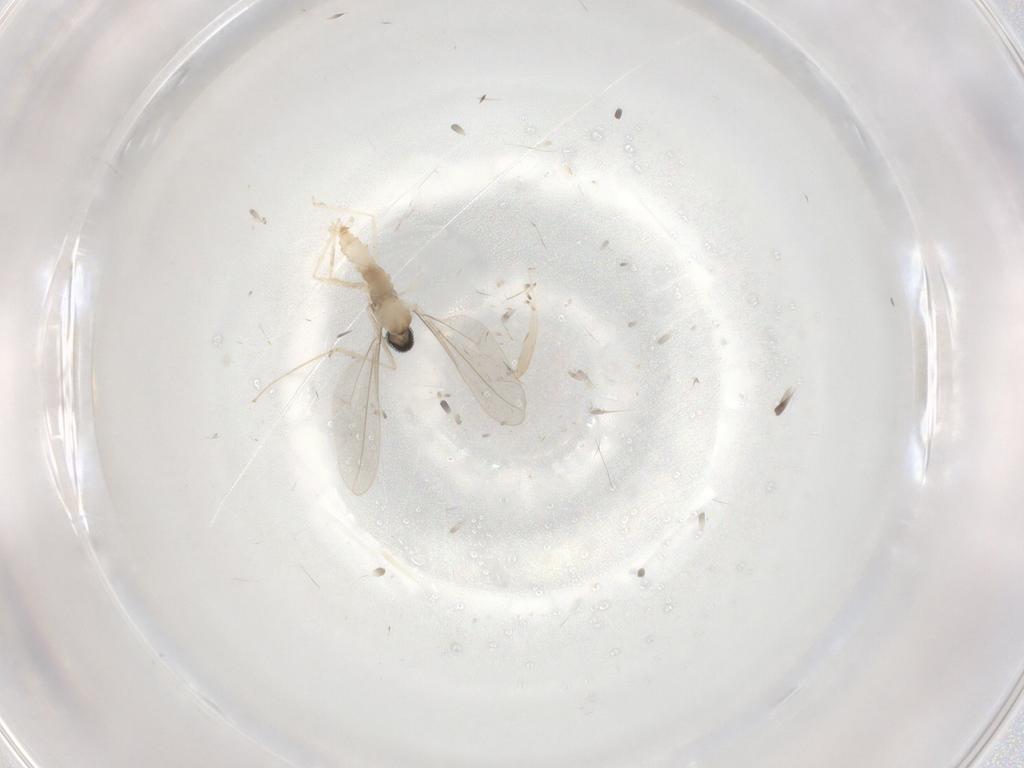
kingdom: Animalia
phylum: Arthropoda
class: Insecta
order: Diptera
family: Cecidomyiidae
